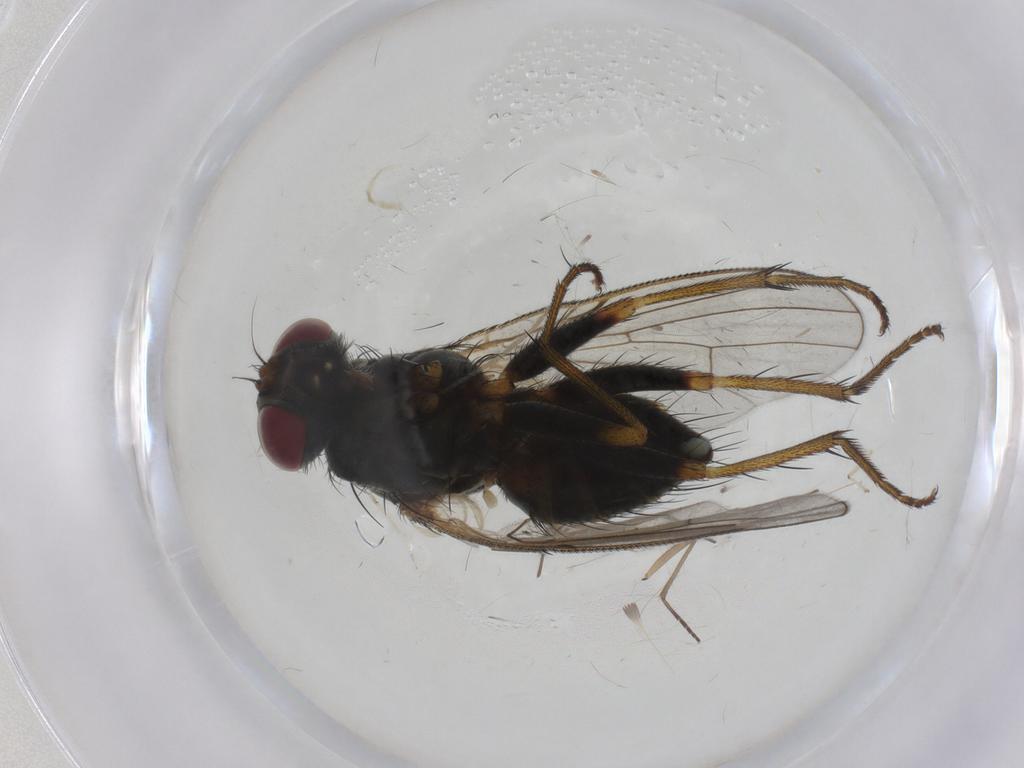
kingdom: Animalia
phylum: Arthropoda
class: Insecta
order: Diptera
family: Tachinidae
